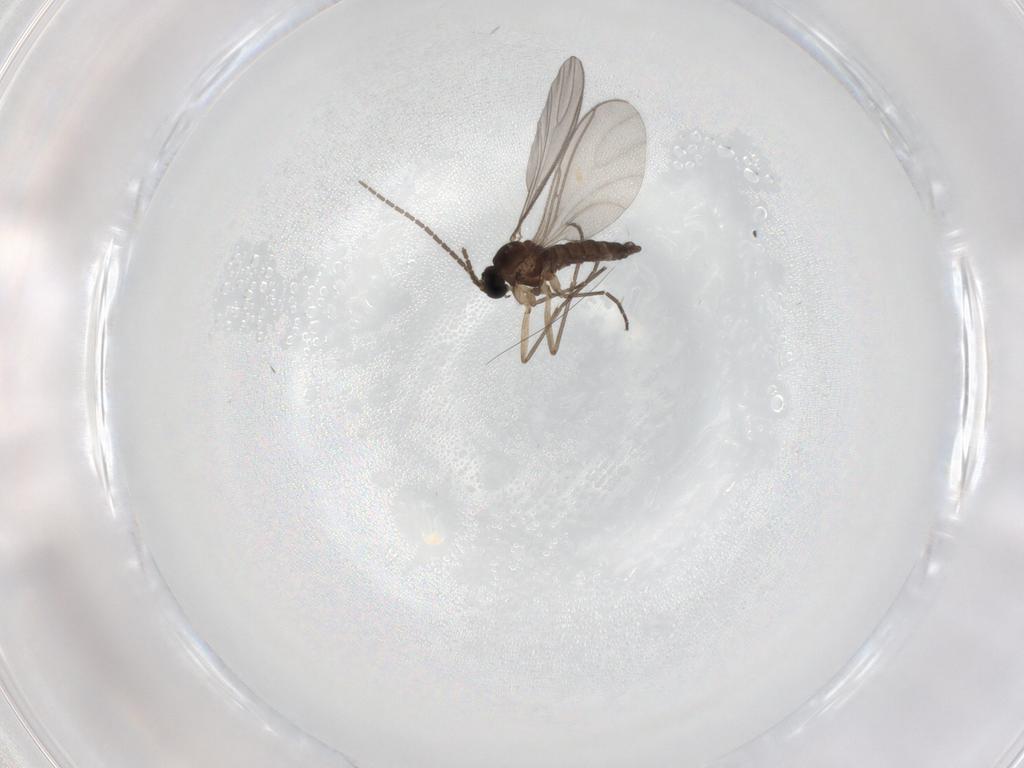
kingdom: Animalia
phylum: Arthropoda
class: Insecta
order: Diptera
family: Sciaridae
